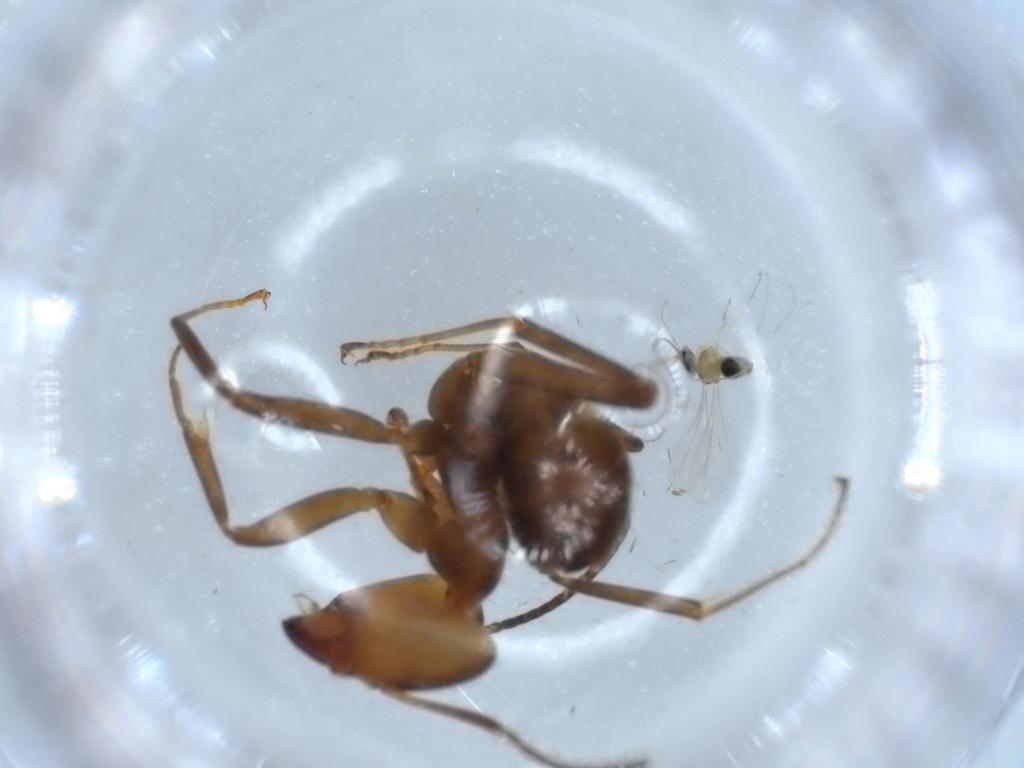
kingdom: Animalia
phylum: Arthropoda
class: Insecta
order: Hymenoptera
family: Formicidae
